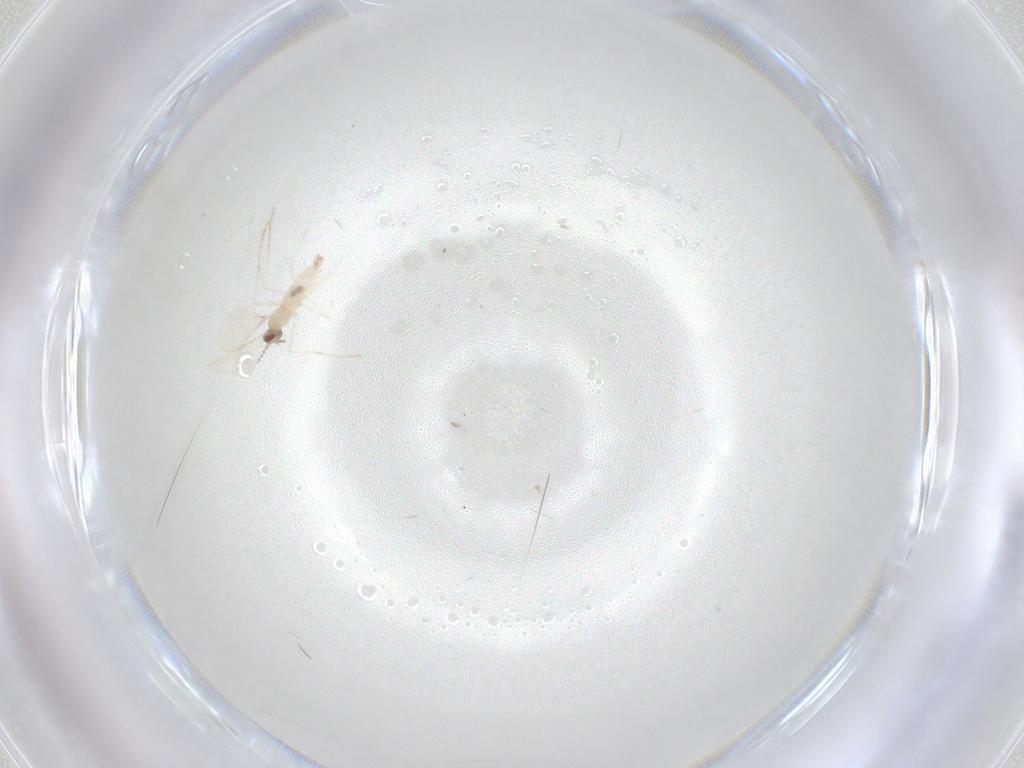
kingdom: Animalia
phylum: Arthropoda
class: Insecta
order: Diptera
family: Cecidomyiidae
